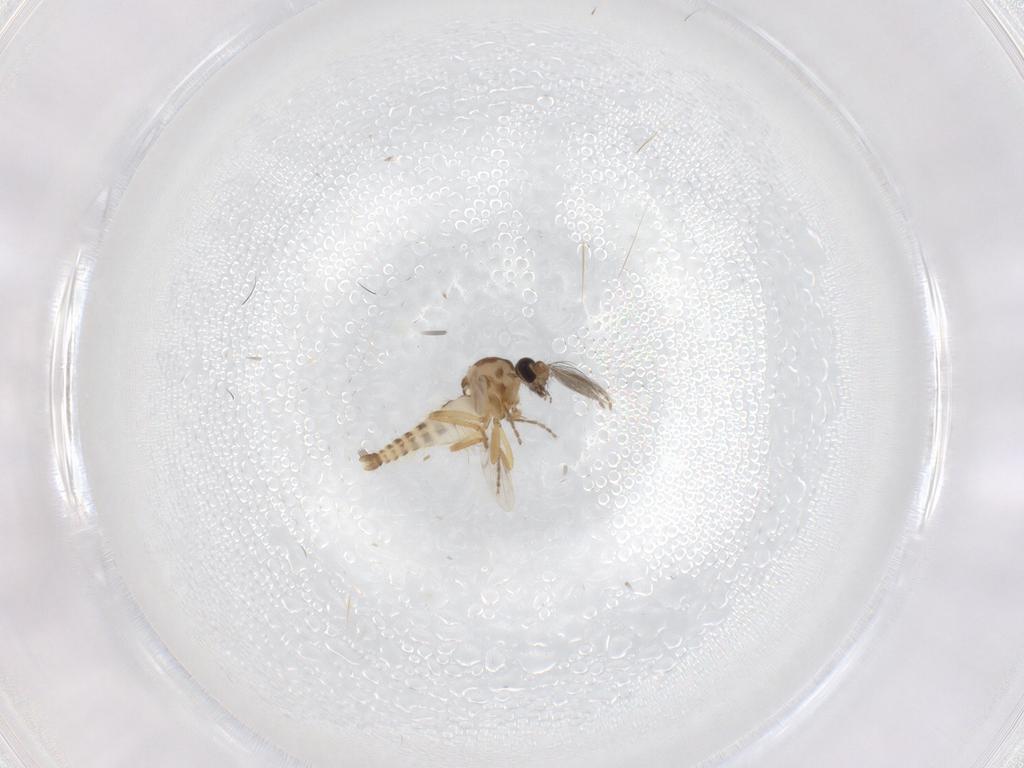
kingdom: Animalia
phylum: Arthropoda
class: Insecta
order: Diptera
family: Ceratopogonidae
